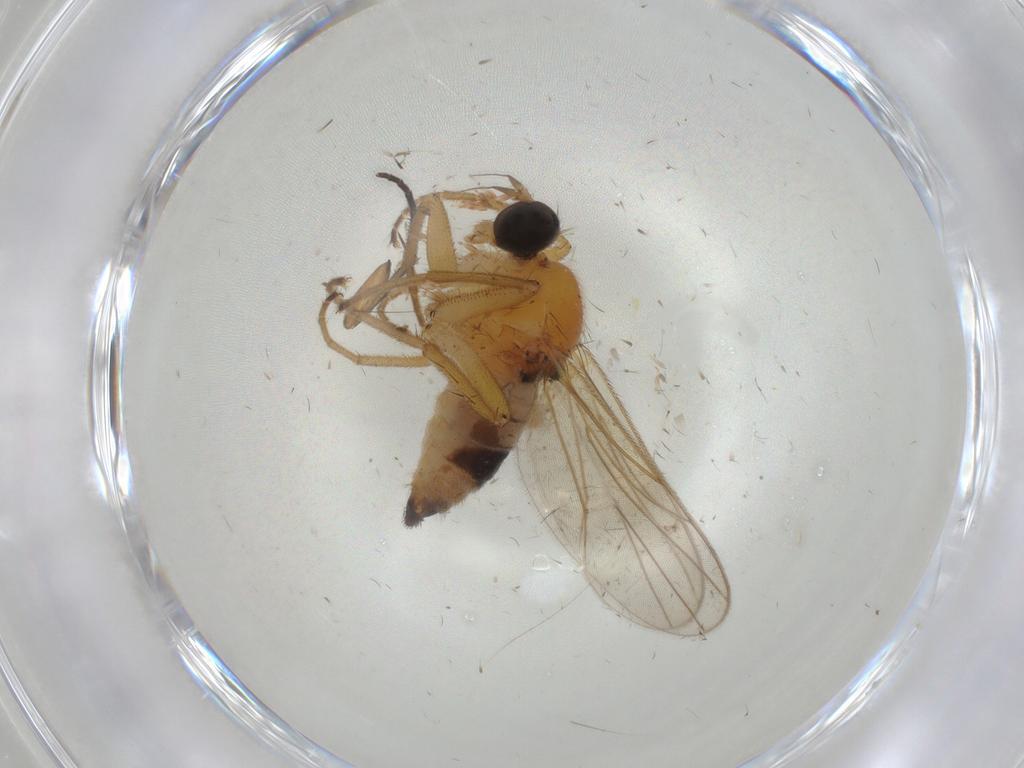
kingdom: Animalia
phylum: Arthropoda
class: Insecta
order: Diptera
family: Hybotidae
